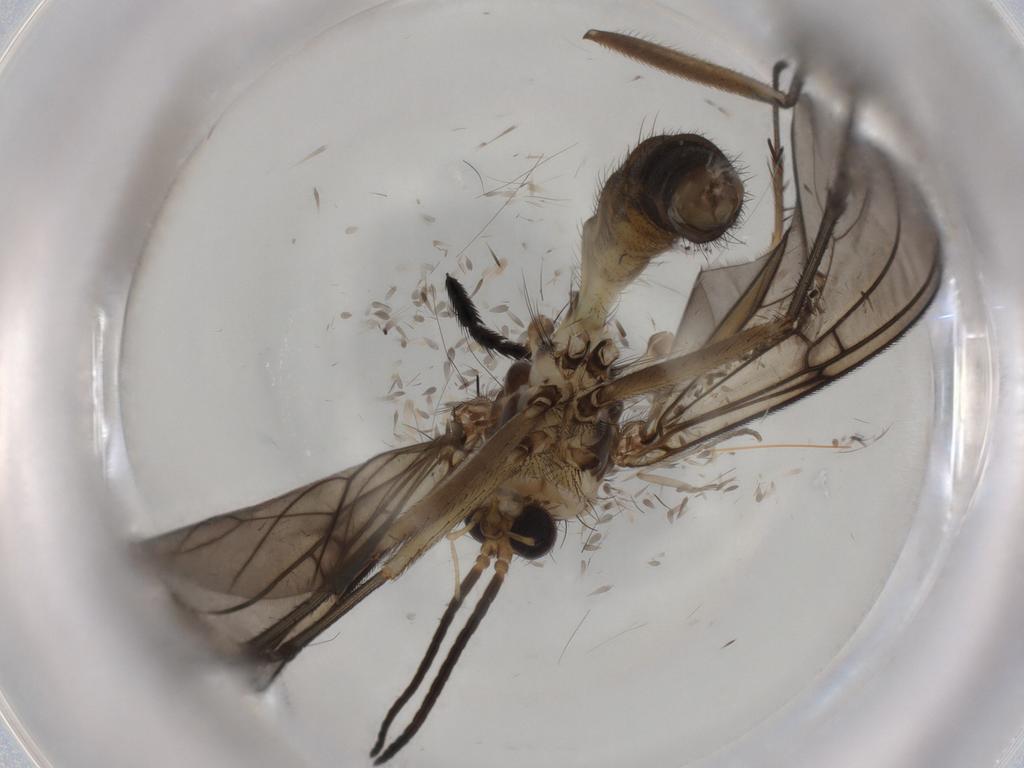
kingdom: Animalia
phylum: Arthropoda
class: Insecta
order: Diptera
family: Mycetophilidae
